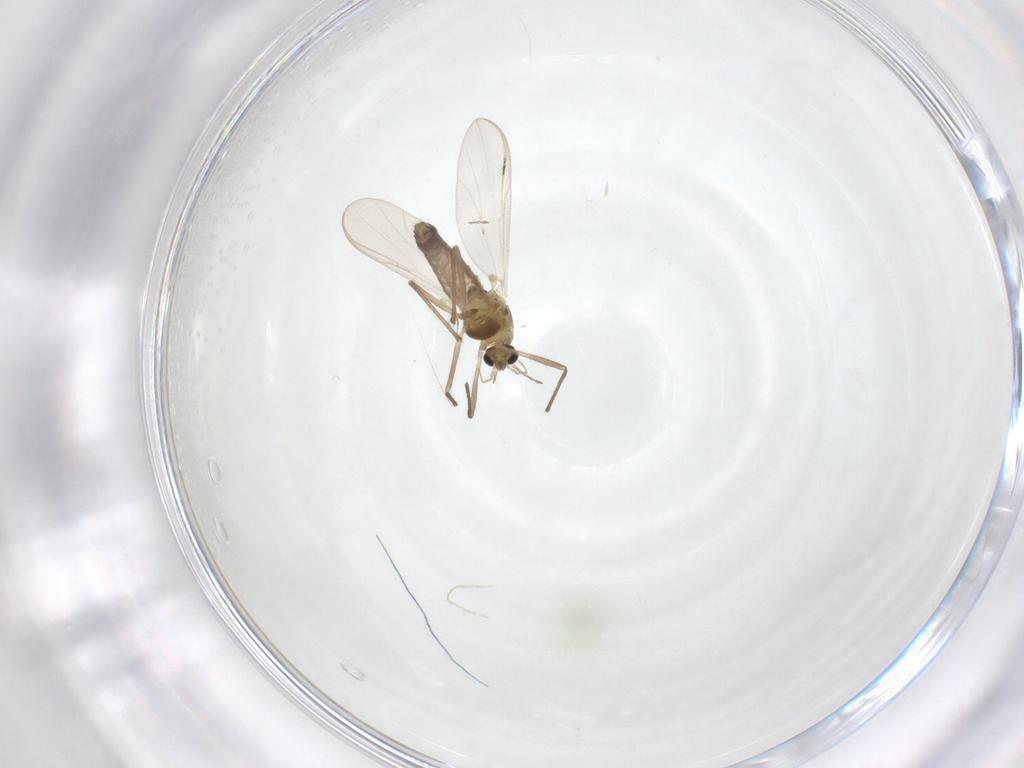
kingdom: Animalia
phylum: Arthropoda
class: Insecta
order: Diptera
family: Chironomidae
